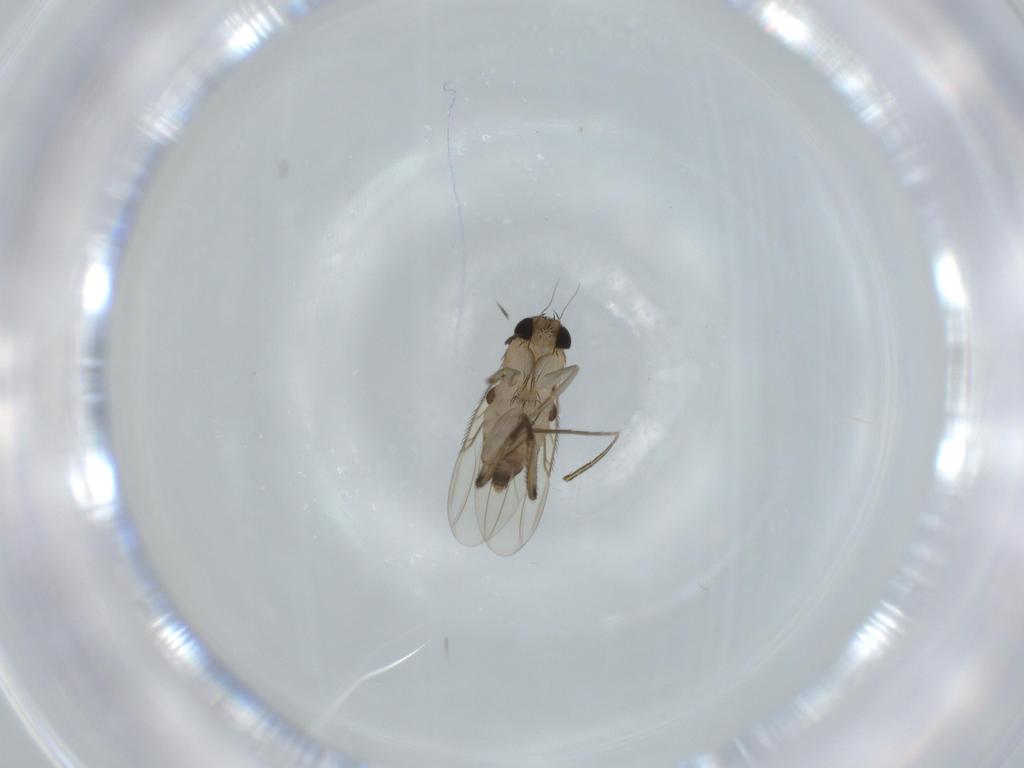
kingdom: Animalia
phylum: Arthropoda
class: Insecta
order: Diptera
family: Phoridae
